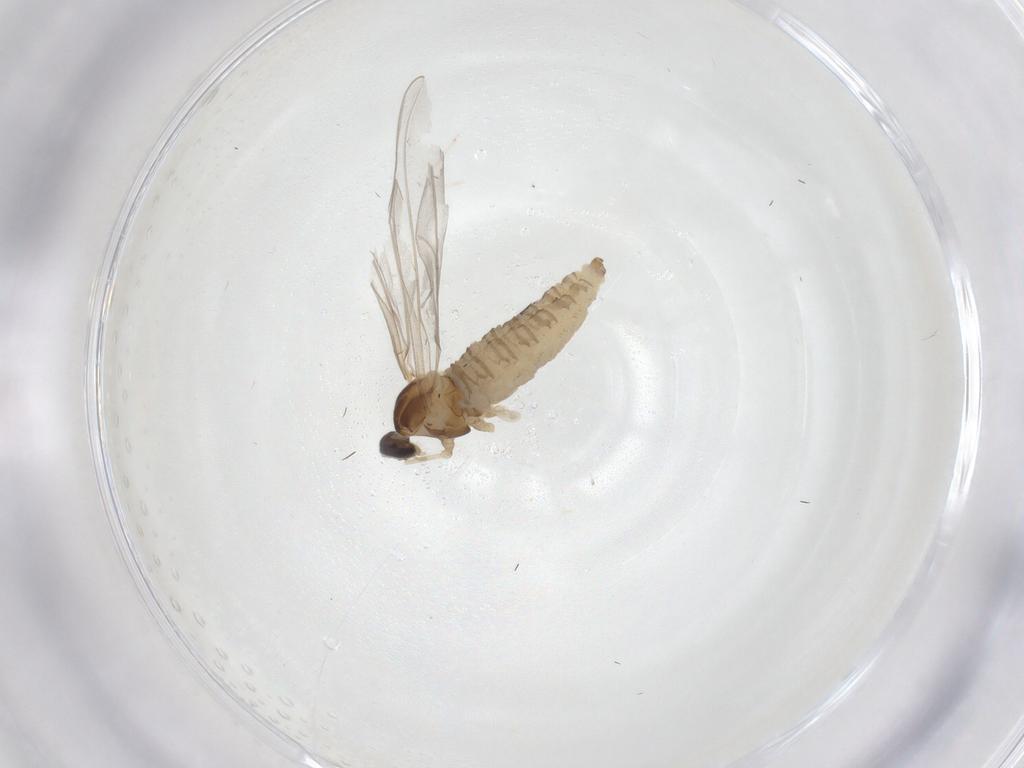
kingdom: Animalia
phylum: Arthropoda
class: Insecta
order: Diptera
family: Cecidomyiidae
